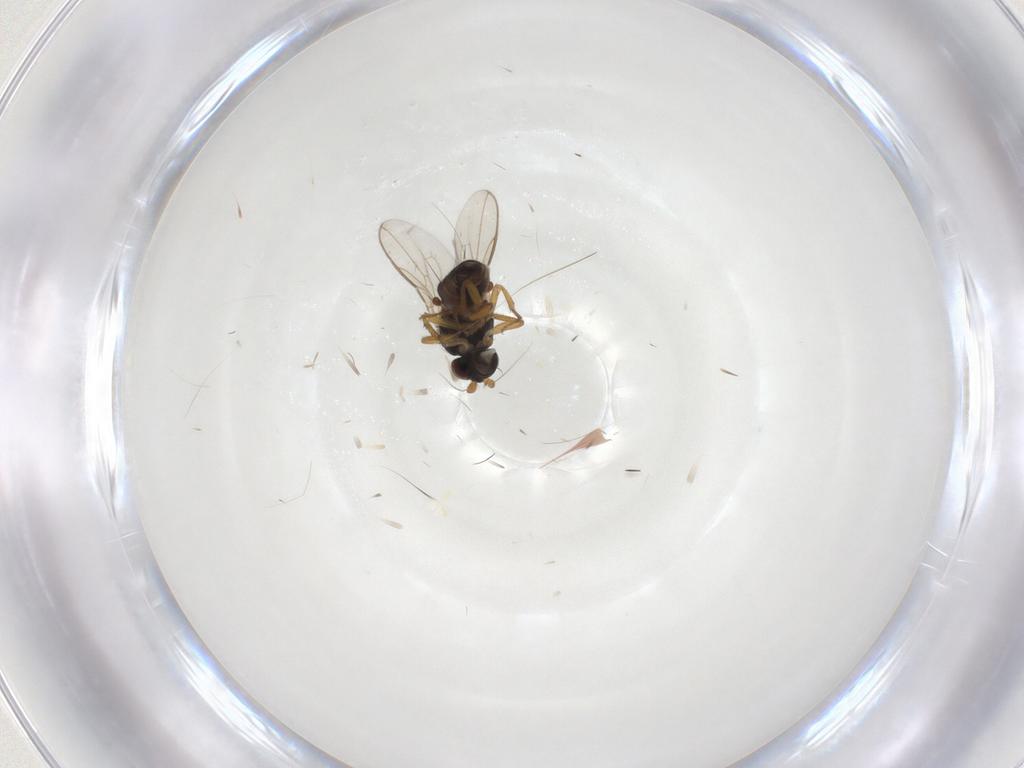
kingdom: Animalia
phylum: Arthropoda
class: Insecta
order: Diptera
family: Sphaeroceridae
